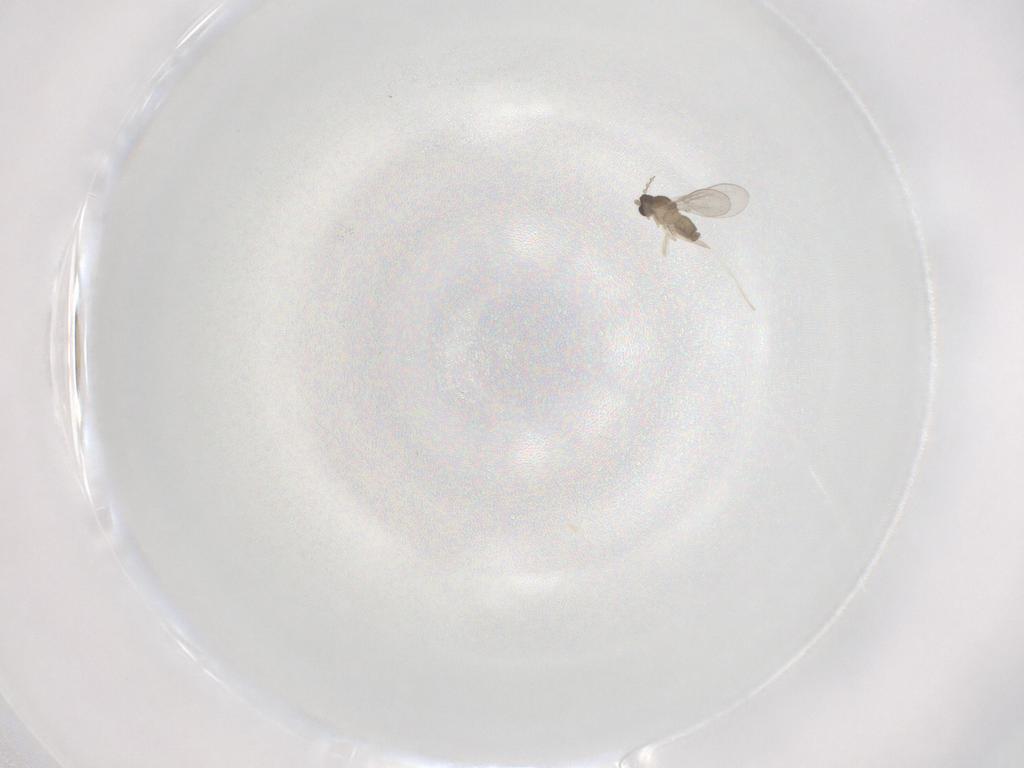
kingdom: Animalia
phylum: Arthropoda
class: Insecta
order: Diptera
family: Cecidomyiidae
